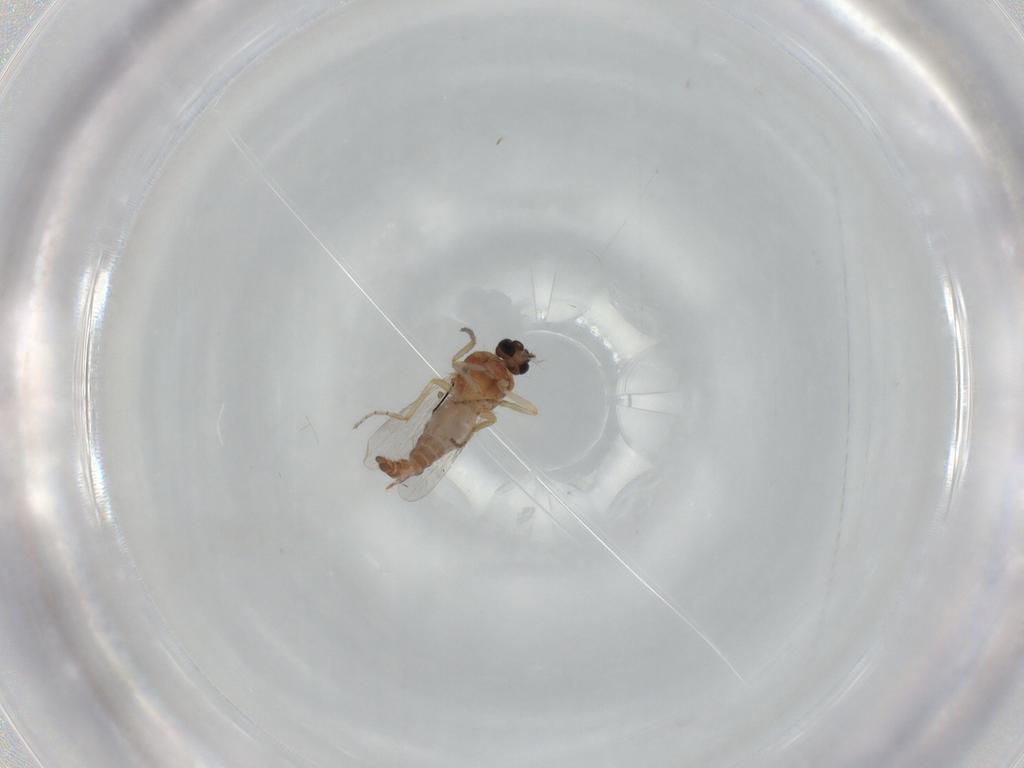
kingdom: Animalia
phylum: Arthropoda
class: Insecta
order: Diptera
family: Ceratopogonidae
